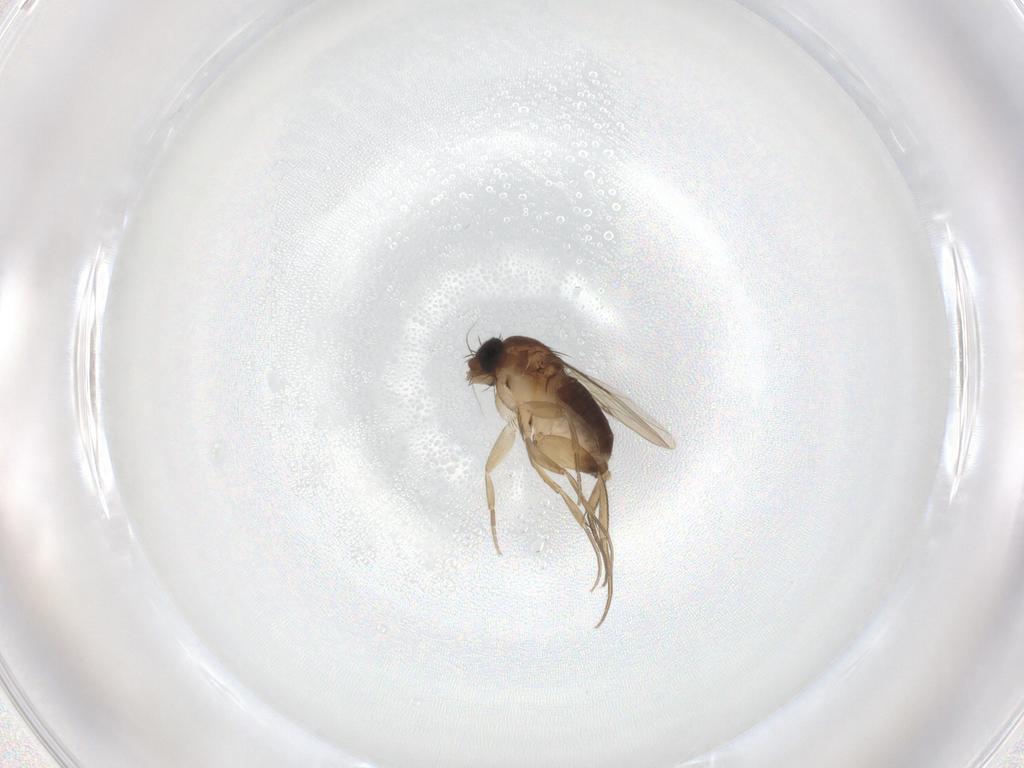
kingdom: Animalia
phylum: Arthropoda
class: Insecta
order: Diptera
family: Phoridae
